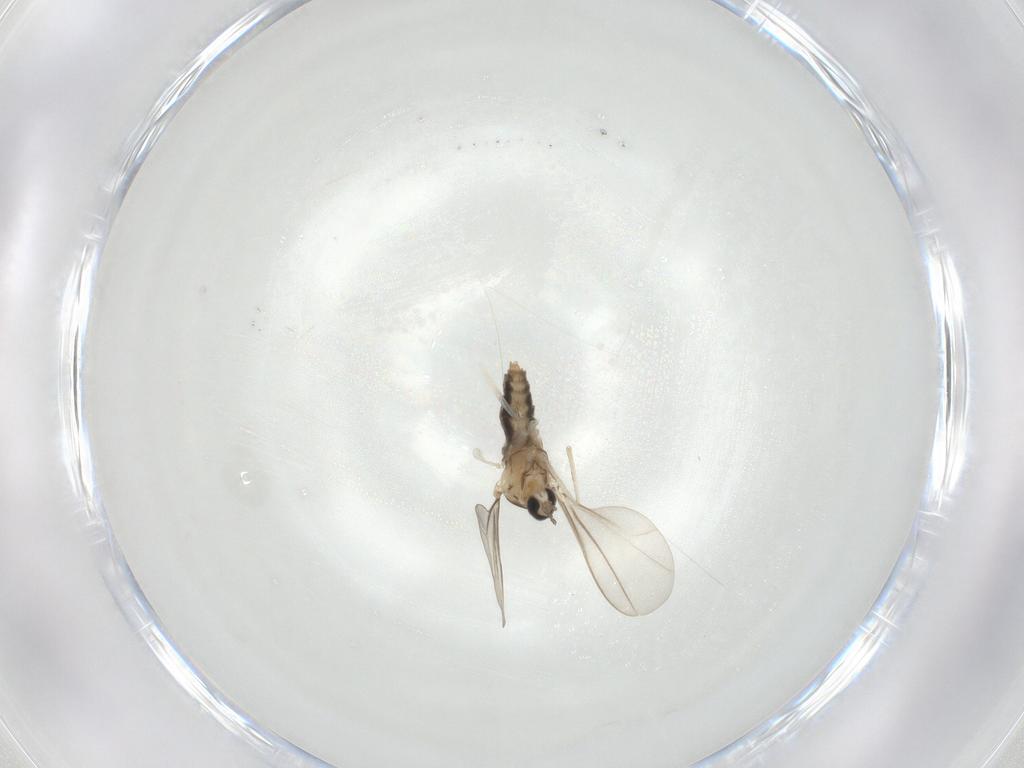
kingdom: Animalia
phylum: Arthropoda
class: Insecta
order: Diptera
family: Cecidomyiidae
